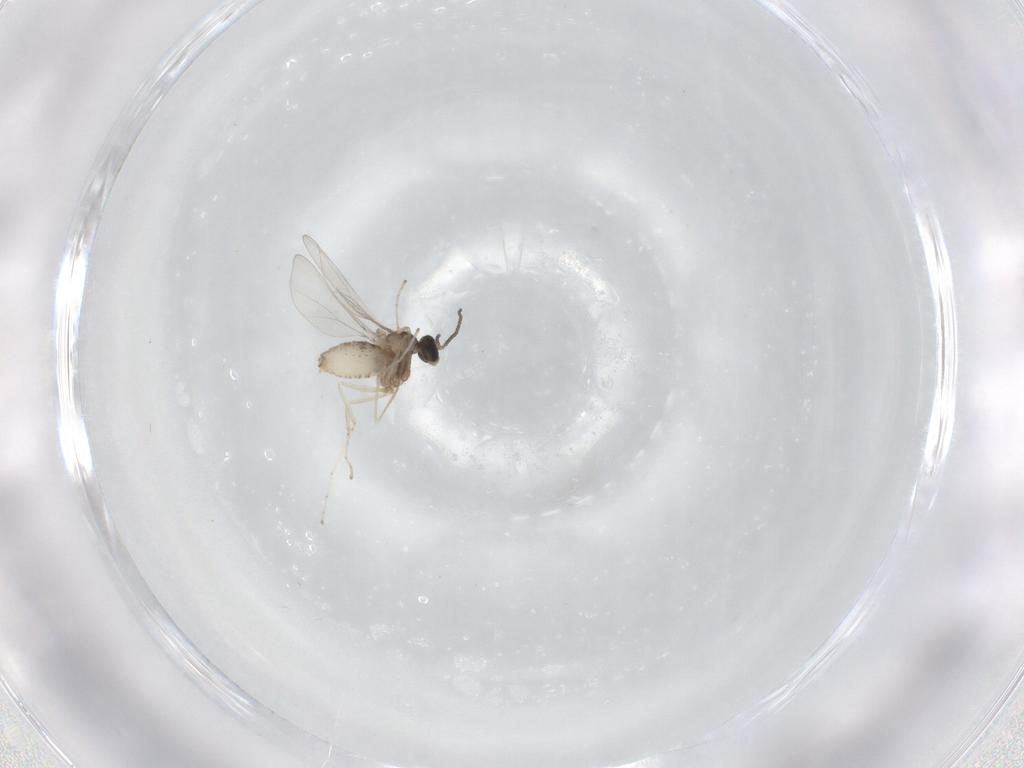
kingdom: Animalia
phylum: Arthropoda
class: Insecta
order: Diptera
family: Cecidomyiidae
